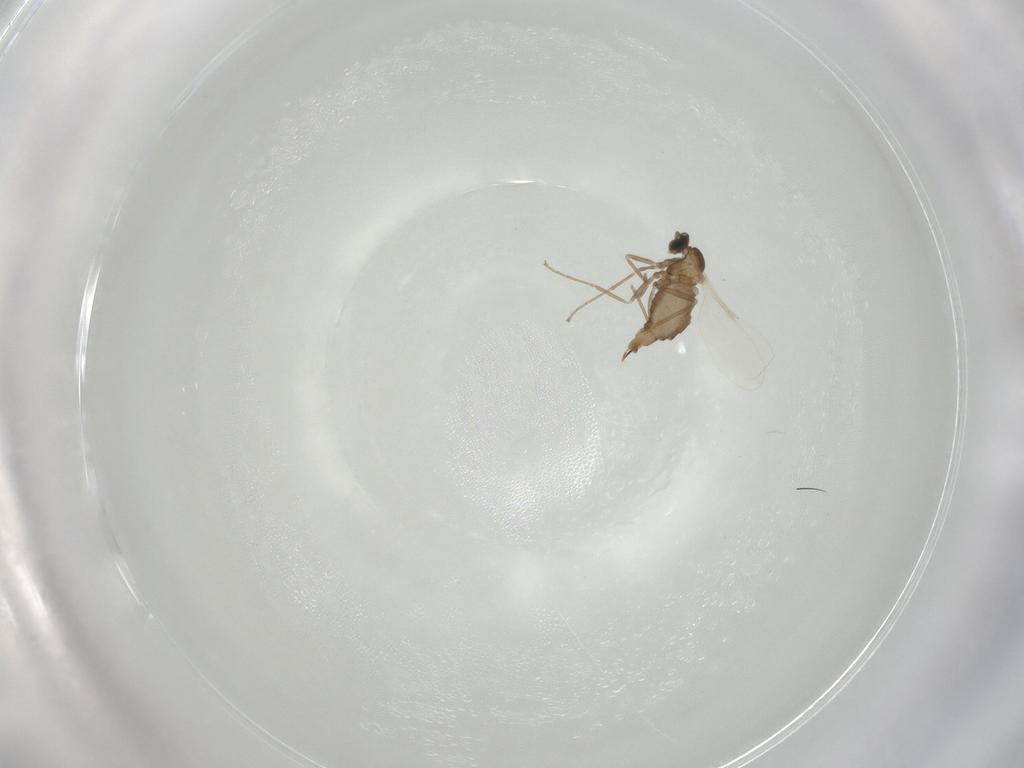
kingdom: Animalia
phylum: Arthropoda
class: Insecta
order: Diptera
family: Cecidomyiidae
